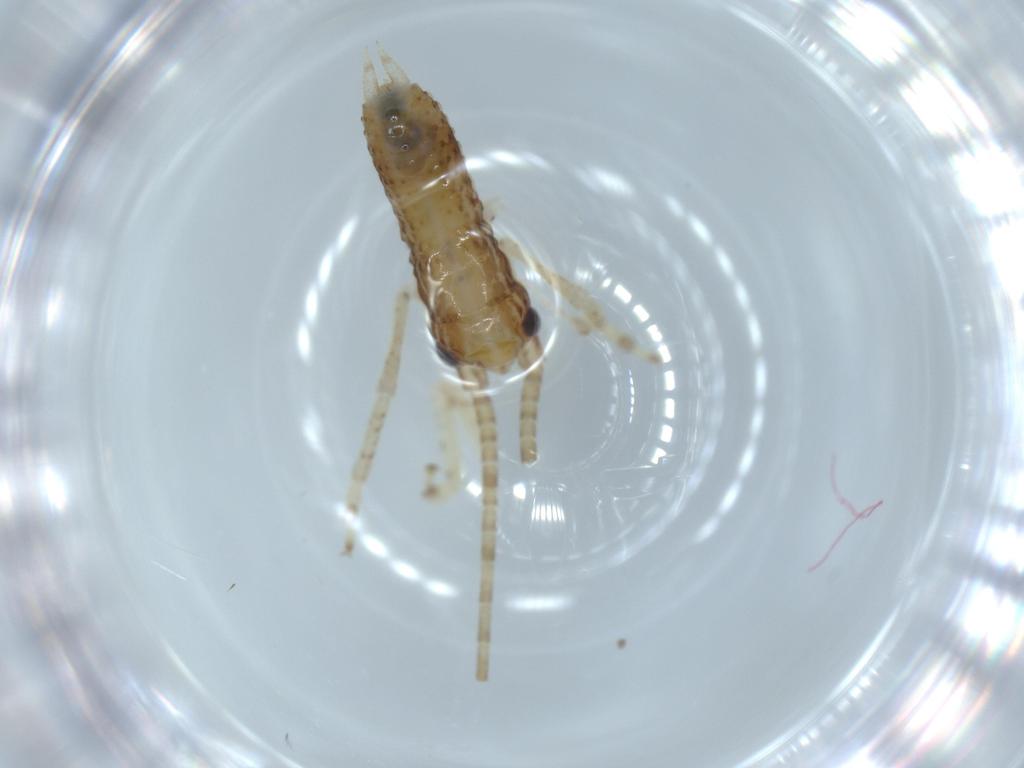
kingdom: Animalia
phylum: Arthropoda
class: Insecta
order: Orthoptera
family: Gryllidae
